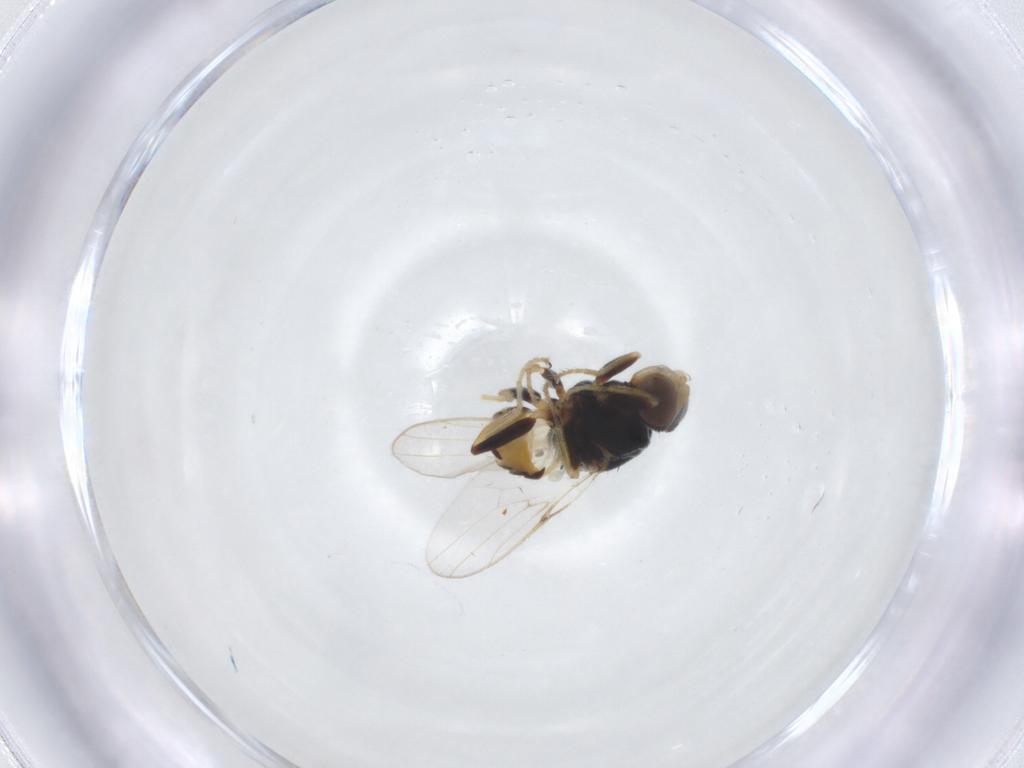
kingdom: Animalia
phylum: Arthropoda
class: Insecta
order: Diptera
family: Chloropidae
